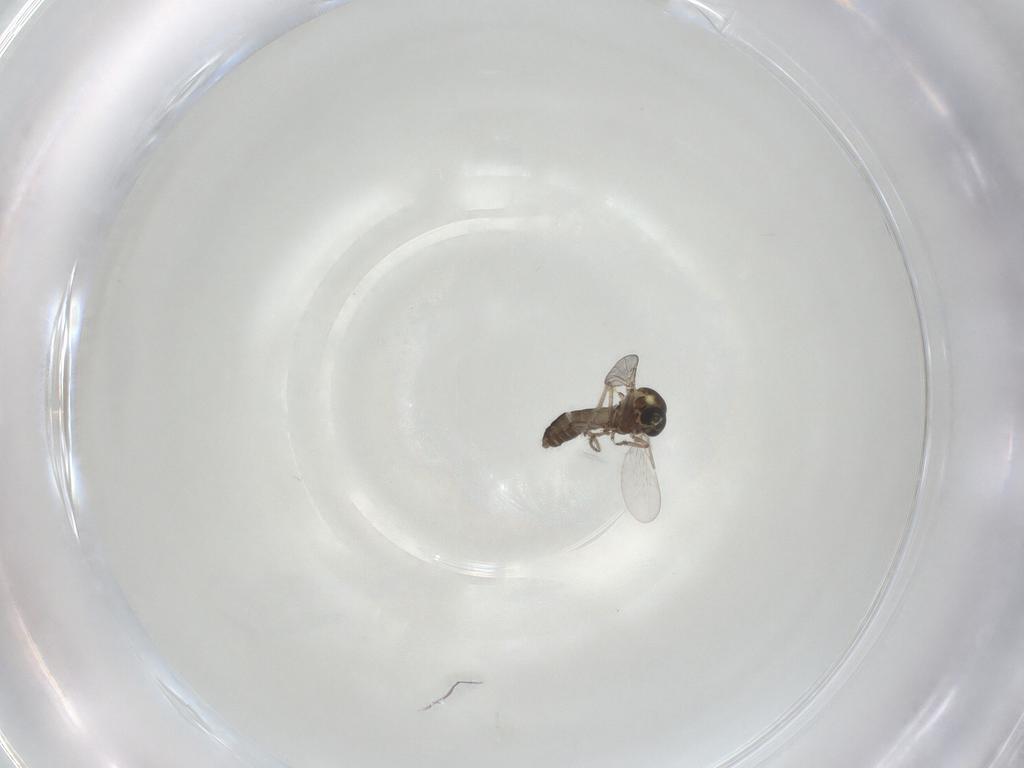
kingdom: Animalia
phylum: Arthropoda
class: Insecta
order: Diptera
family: Ceratopogonidae
